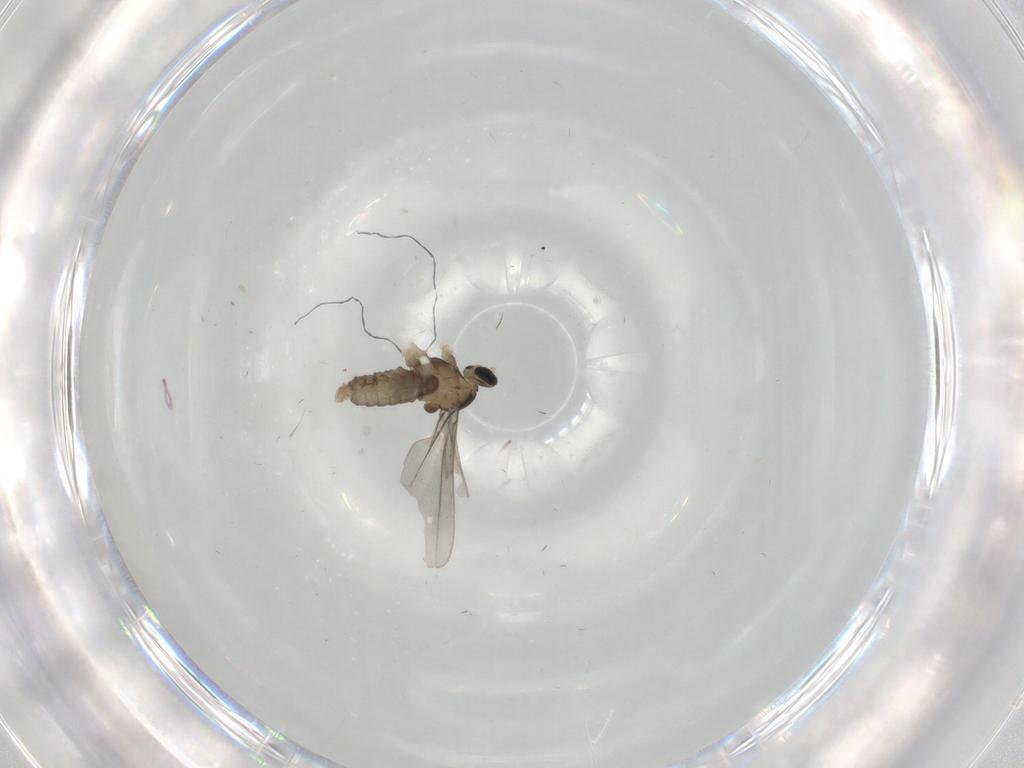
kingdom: Animalia
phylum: Arthropoda
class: Insecta
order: Diptera
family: Cecidomyiidae
